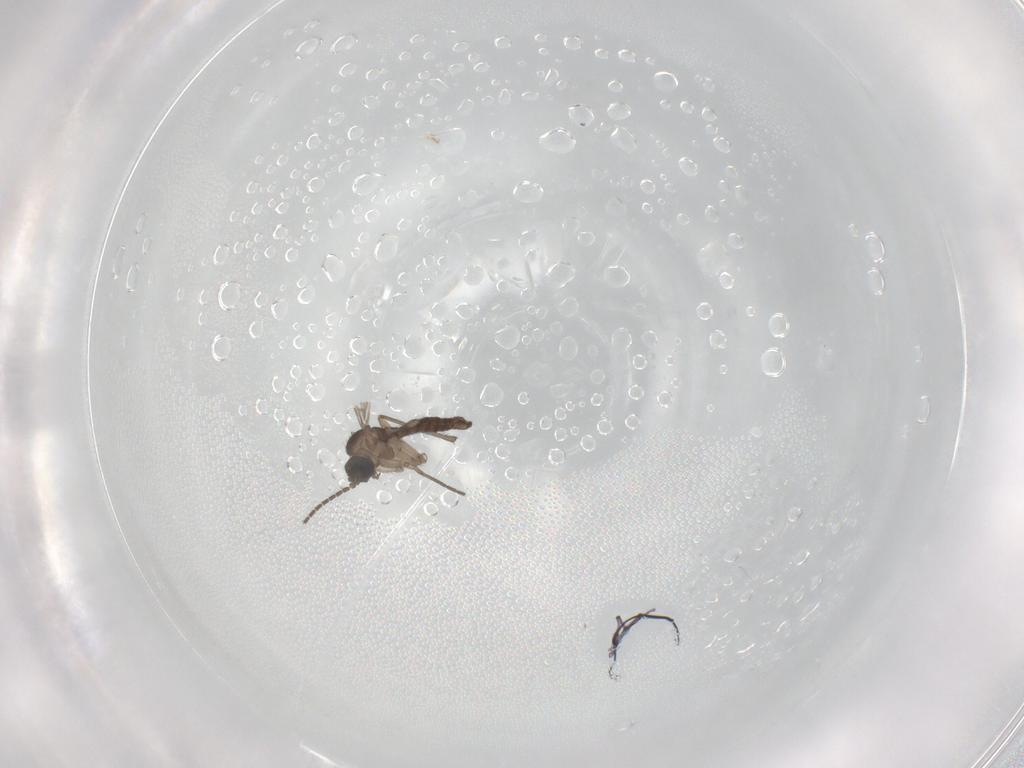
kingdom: Animalia
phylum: Arthropoda
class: Insecta
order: Diptera
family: Sciaridae
